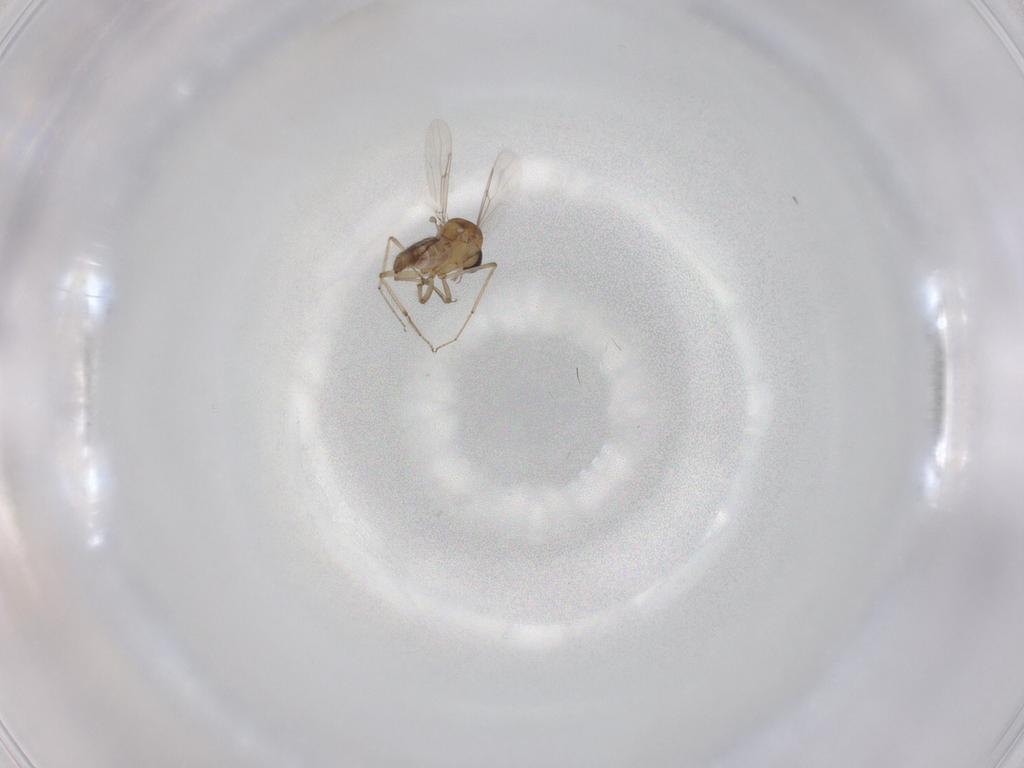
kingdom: Animalia
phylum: Arthropoda
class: Insecta
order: Diptera
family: Ceratopogonidae
